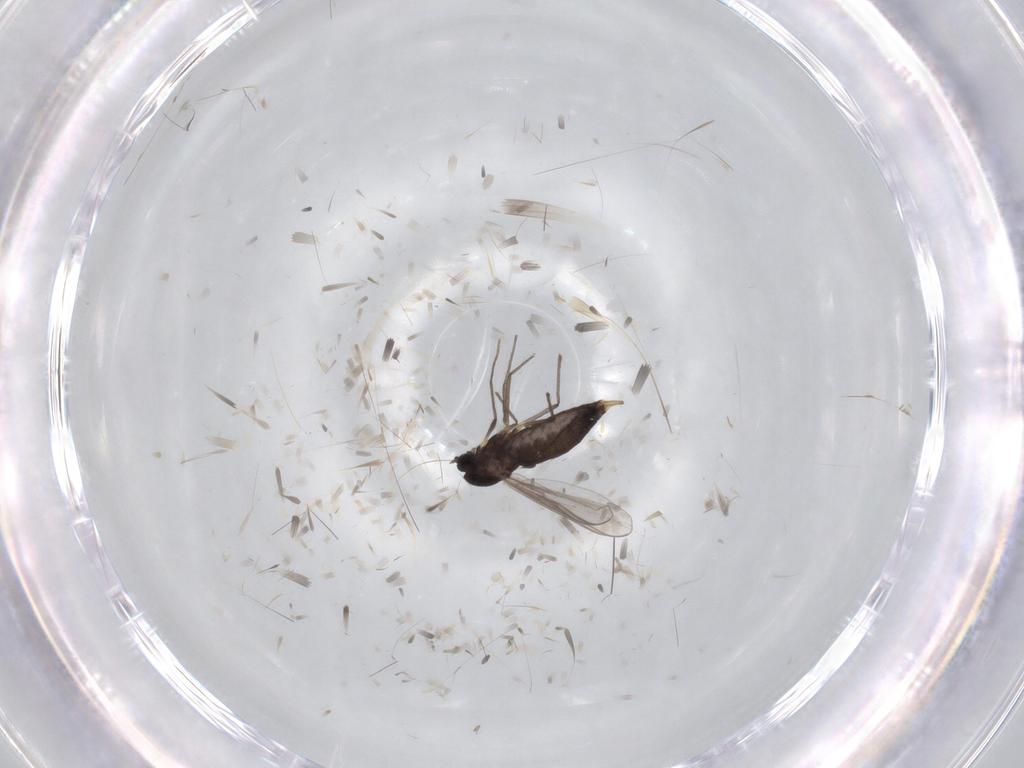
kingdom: Animalia
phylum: Arthropoda
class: Insecta
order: Diptera
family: Chironomidae
